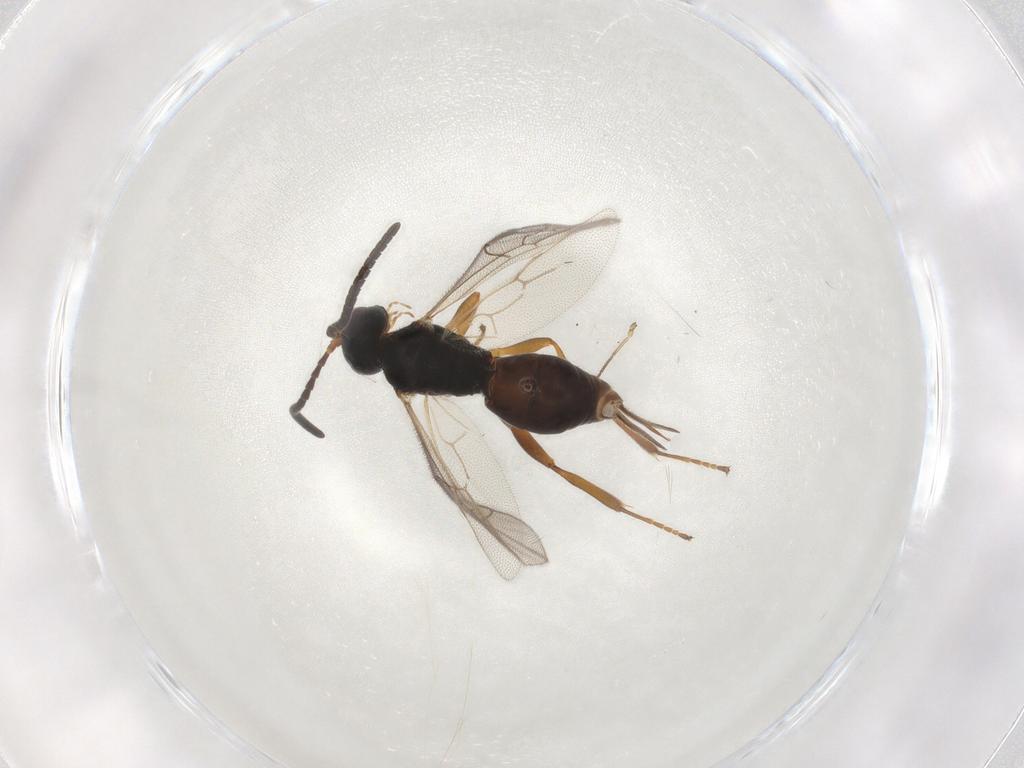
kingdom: Animalia
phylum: Arthropoda
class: Insecta
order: Hymenoptera
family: Ichneumonidae
